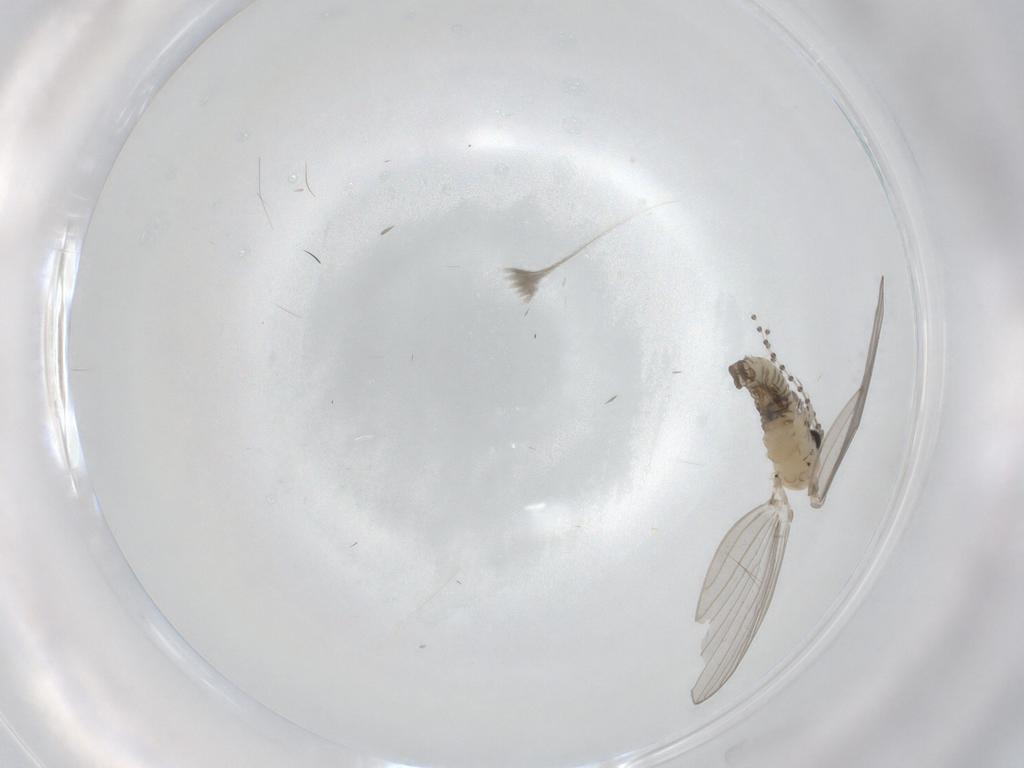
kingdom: Animalia
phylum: Arthropoda
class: Insecta
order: Diptera
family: Psychodidae
